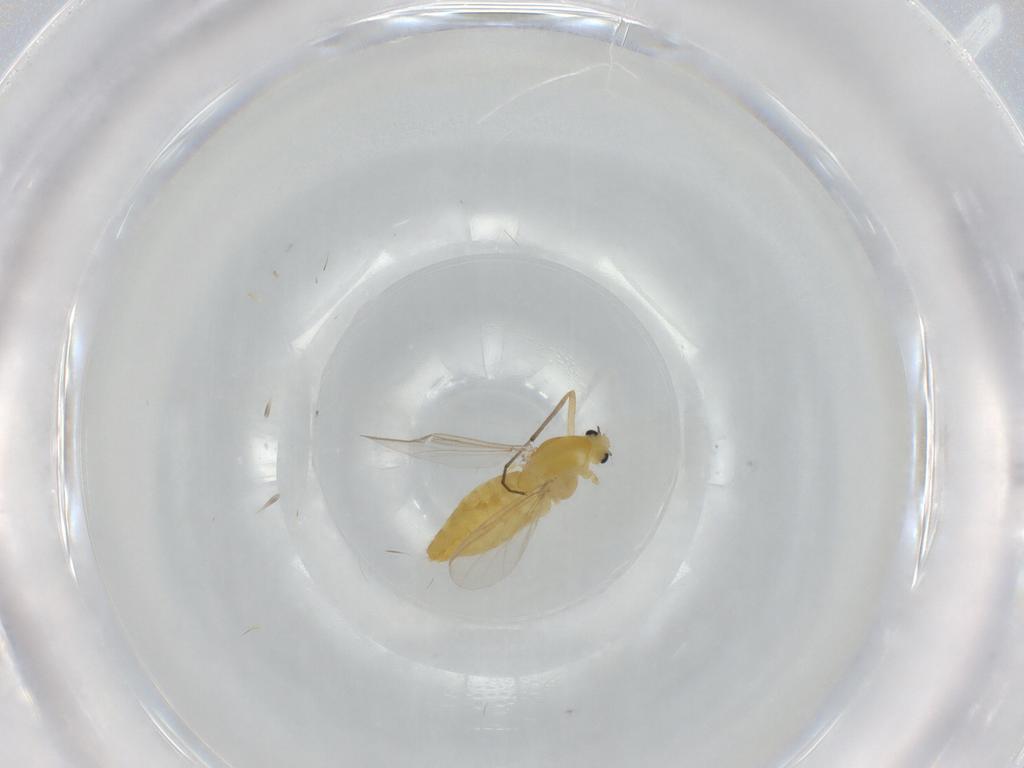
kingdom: Animalia
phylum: Arthropoda
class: Insecta
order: Diptera
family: Chironomidae
